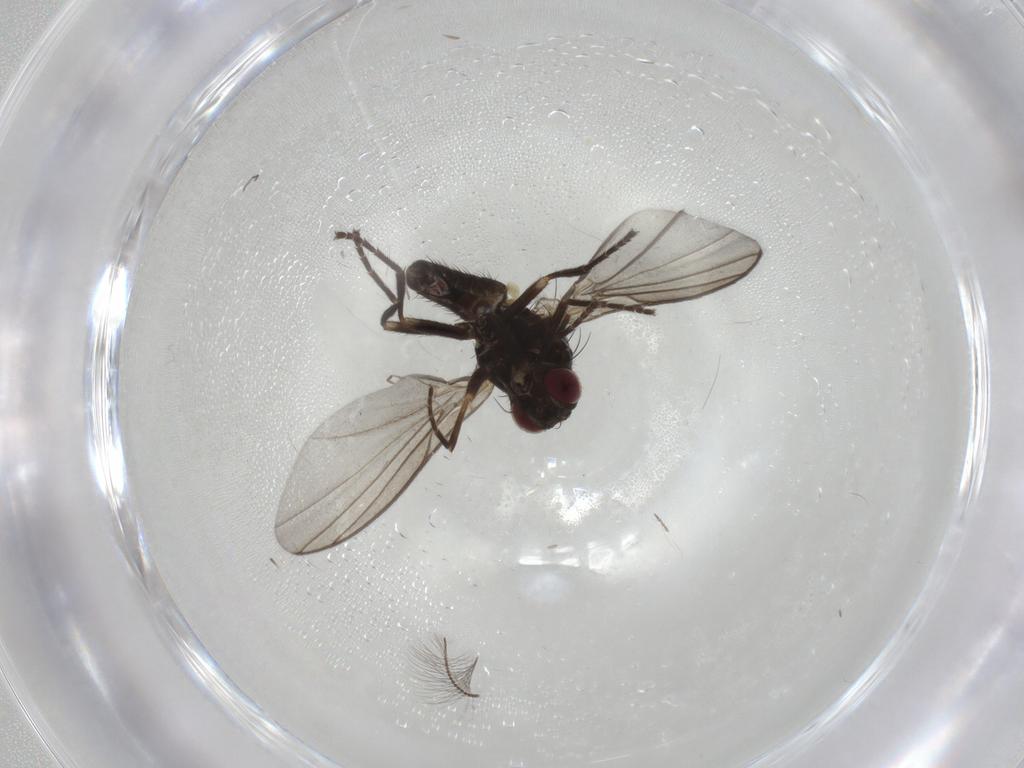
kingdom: Animalia
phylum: Arthropoda
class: Insecta
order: Diptera
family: Agromyzidae
